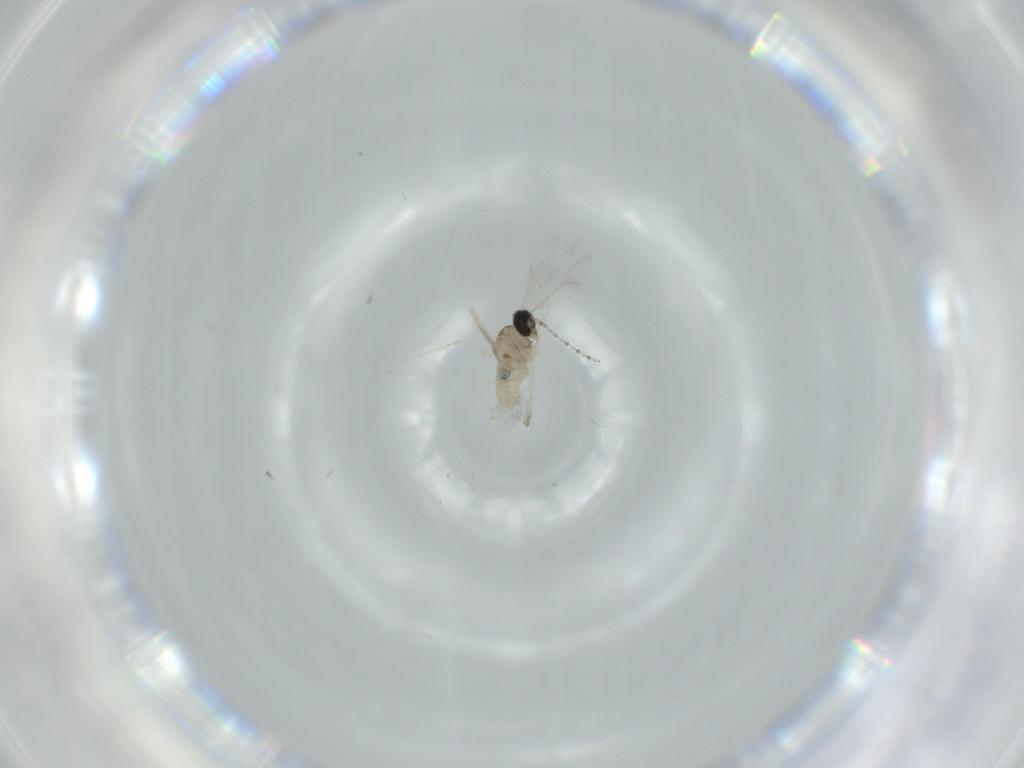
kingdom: Animalia
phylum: Arthropoda
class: Insecta
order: Diptera
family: Cecidomyiidae
